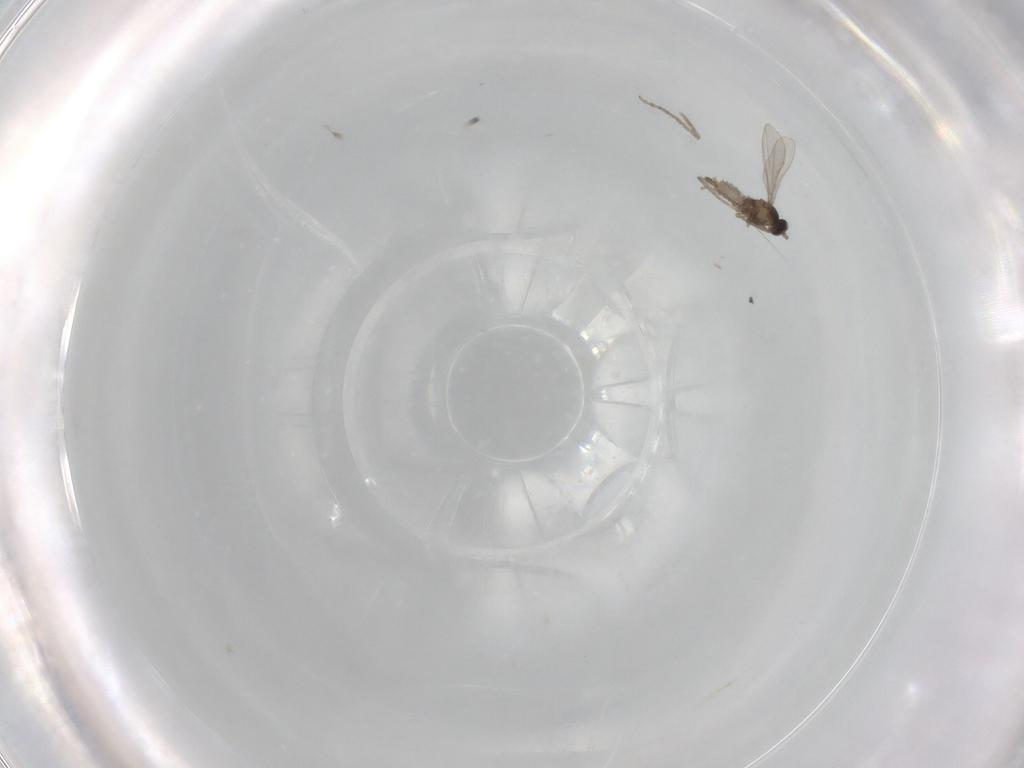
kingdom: Animalia
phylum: Arthropoda
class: Insecta
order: Diptera
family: Cecidomyiidae
